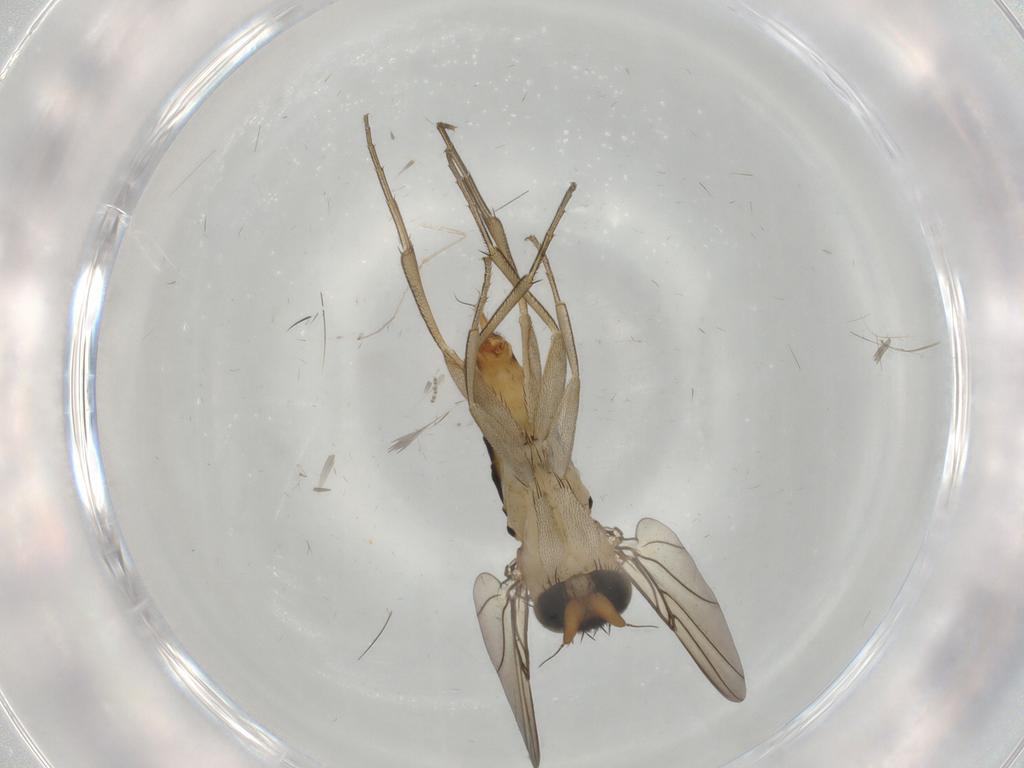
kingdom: Animalia
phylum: Arthropoda
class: Insecta
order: Diptera
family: Phoridae
